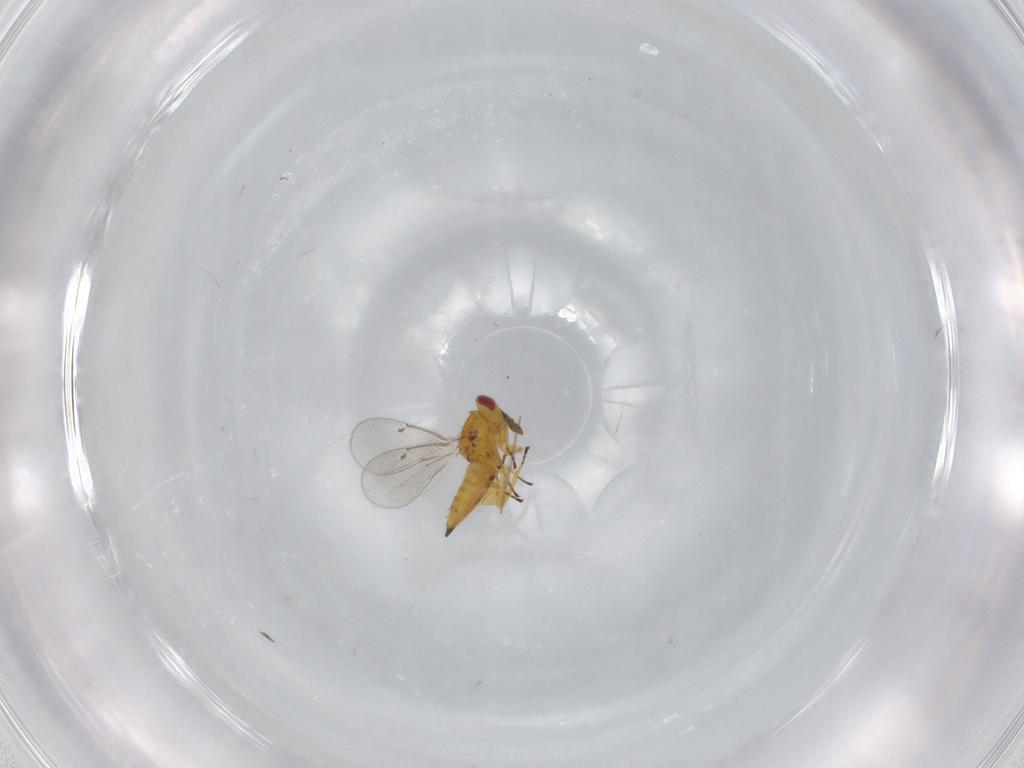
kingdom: Animalia
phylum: Arthropoda
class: Insecta
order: Hymenoptera
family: Eulophidae
